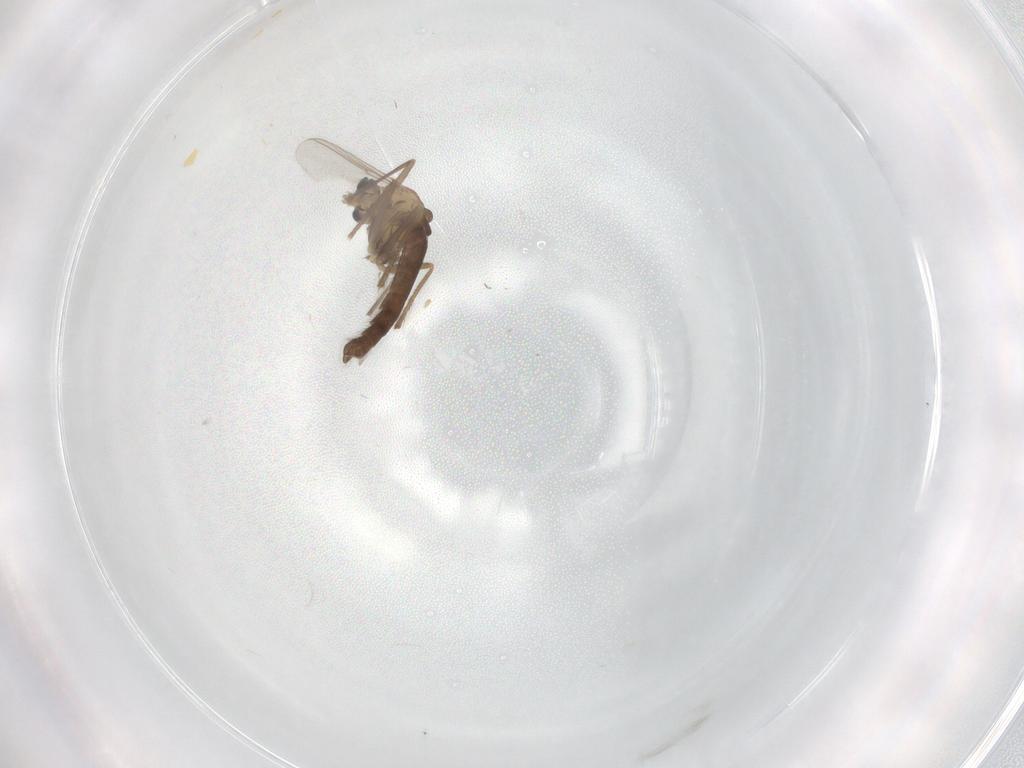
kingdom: Animalia
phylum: Arthropoda
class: Insecta
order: Diptera
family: Chironomidae
